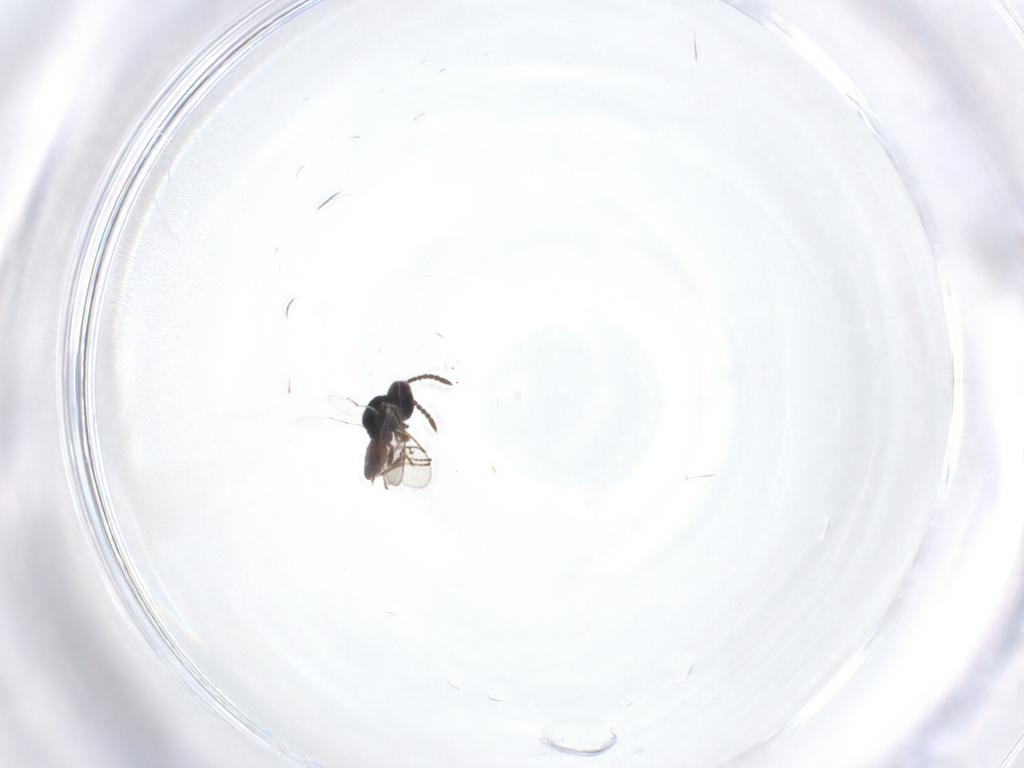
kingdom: Animalia
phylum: Arthropoda
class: Insecta
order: Hymenoptera
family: Pteromalidae
